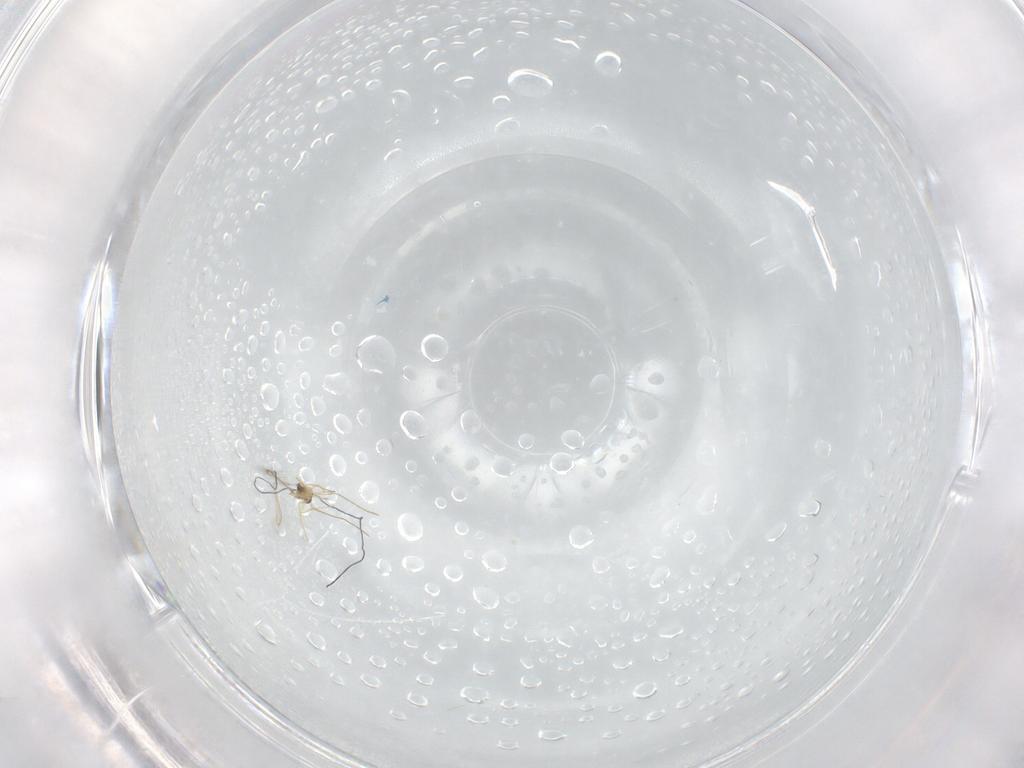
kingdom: Animalia
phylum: Arthropoda
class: Insecta
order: Hymenoptera
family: Mymaridae
